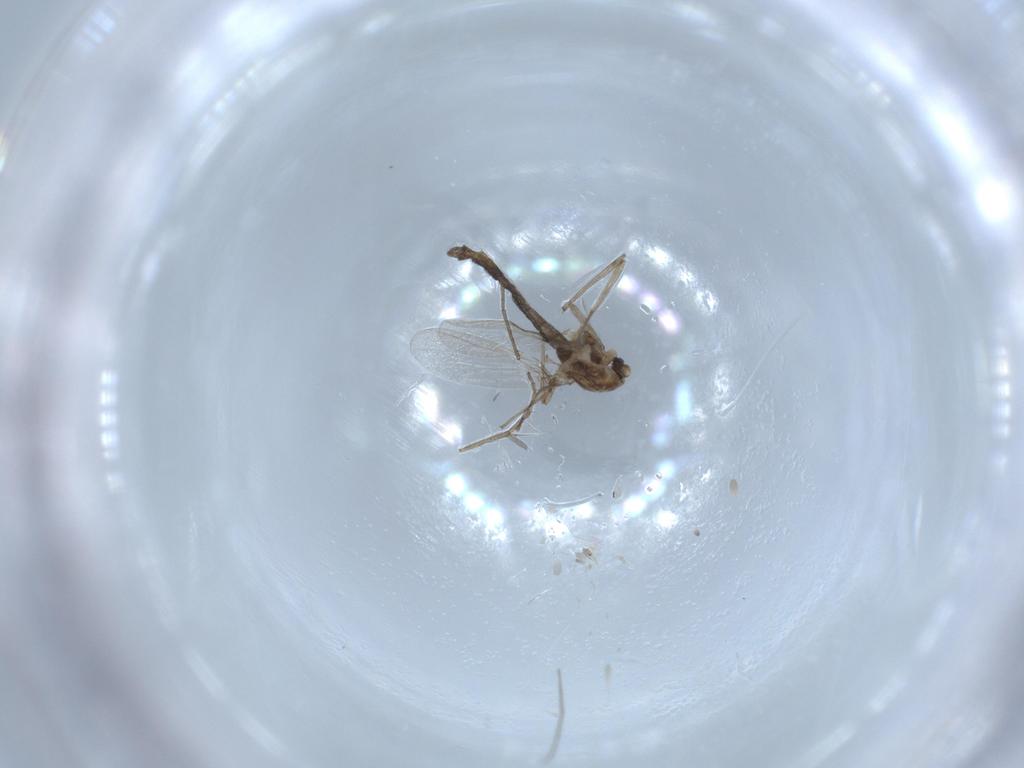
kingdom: Animalia
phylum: Arthropoda
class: Insecta
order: Diptera
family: Chironomidae
